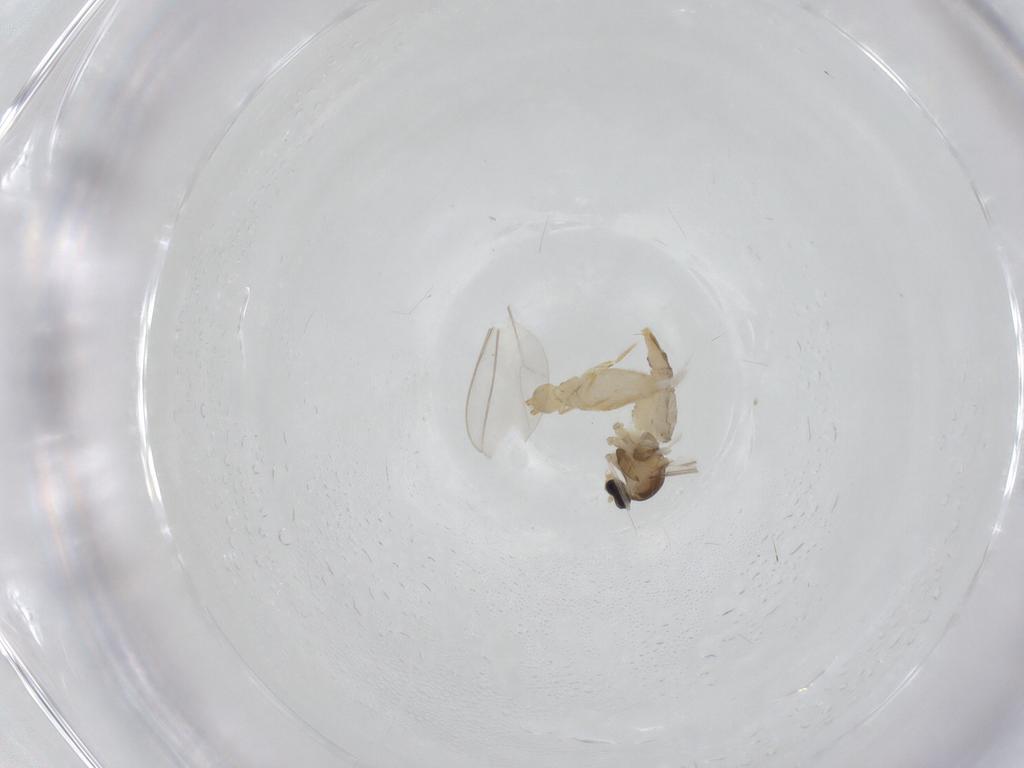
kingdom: Animalia
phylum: Arthropoda
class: Insecta
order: Diptera
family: Cecidomyiidae
